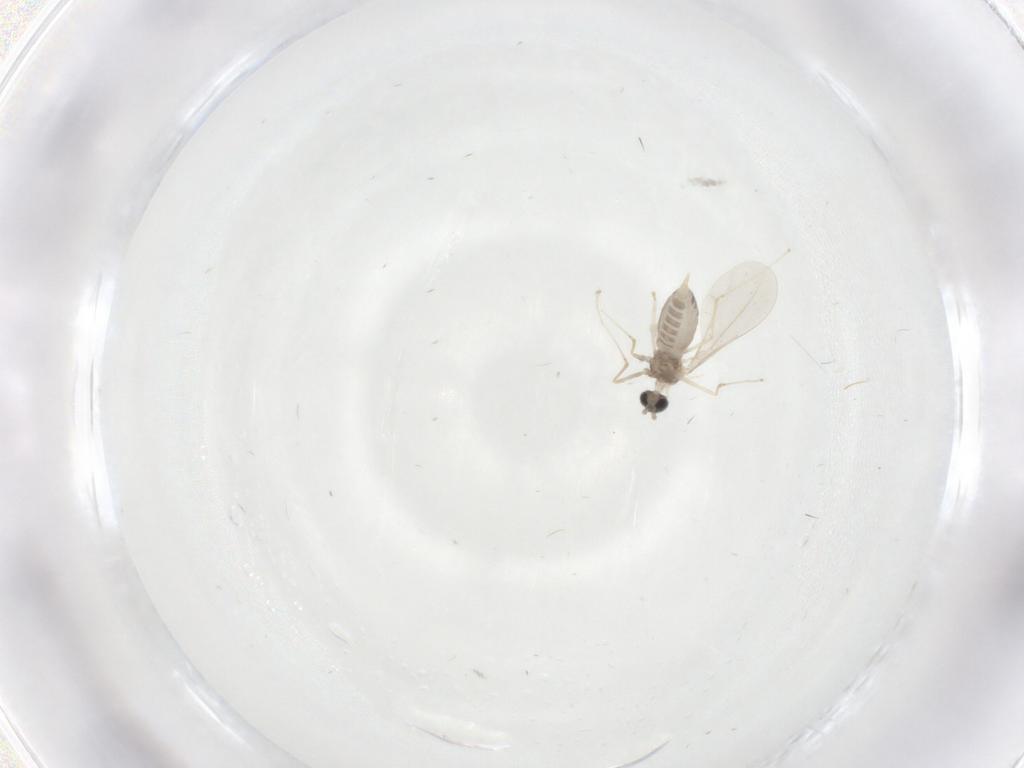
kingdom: Animalia
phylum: Arthropoda
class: Insecta
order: Diptera
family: Cecidomyiidae
